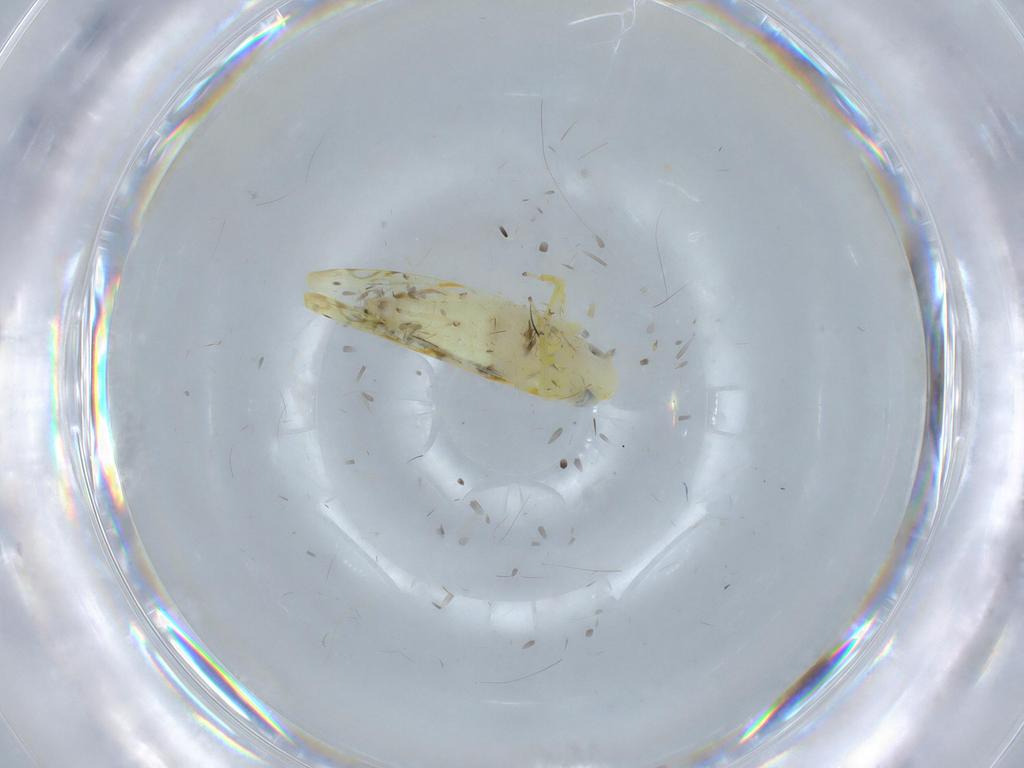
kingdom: Animalia
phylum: Arthropoda
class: Insecta
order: Hemiptera
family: Cicadellidae
